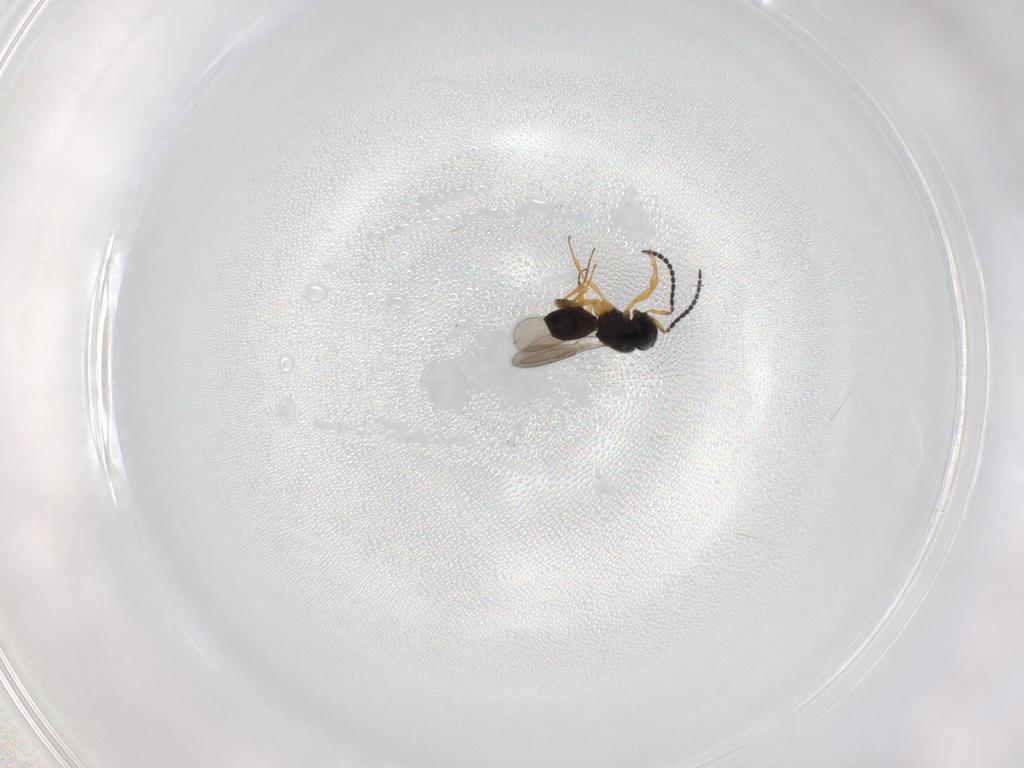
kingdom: Animalia
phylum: Arthropoda
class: Insecta
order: Hymenoptera
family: Scelionidae
